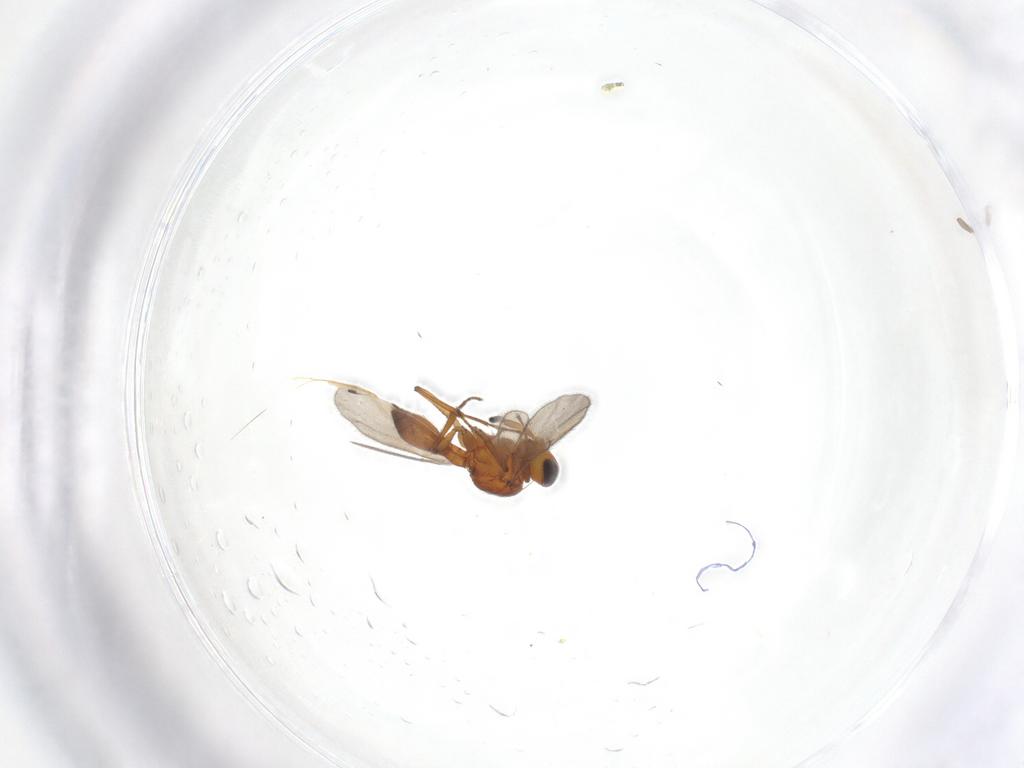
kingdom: Animalia
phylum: Arthropoda
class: Insecta
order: Hymenoptera
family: Scelionidae
